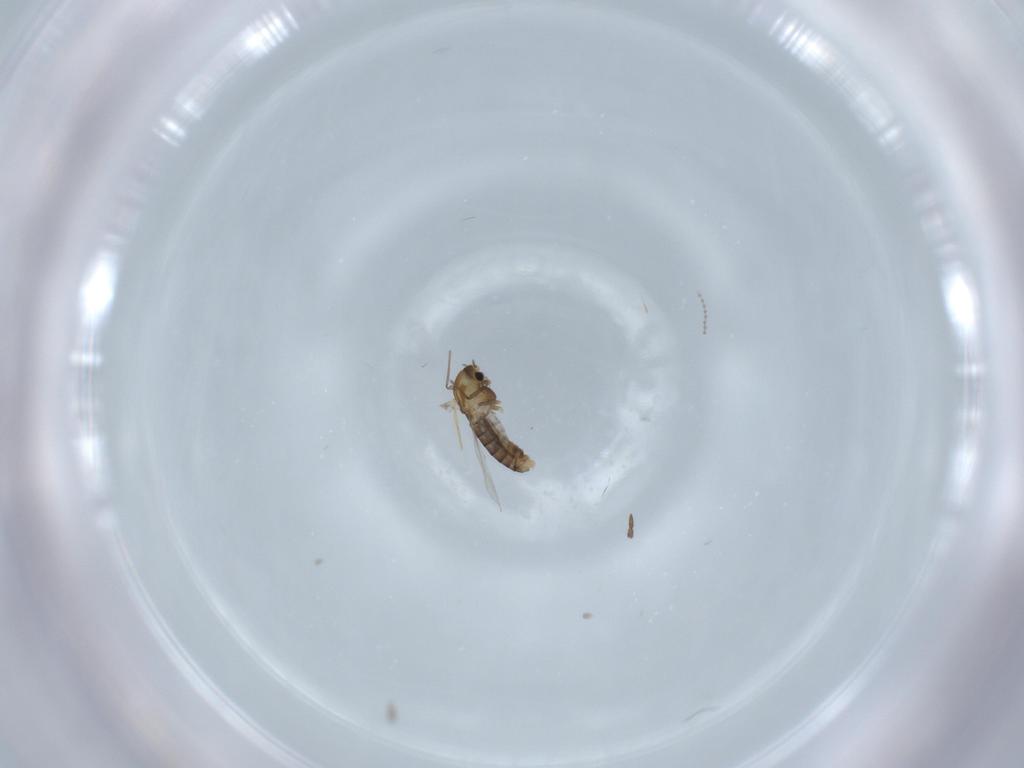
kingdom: Animalia
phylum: Arthropoda
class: Insecta
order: Diptera
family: Chironomidae
